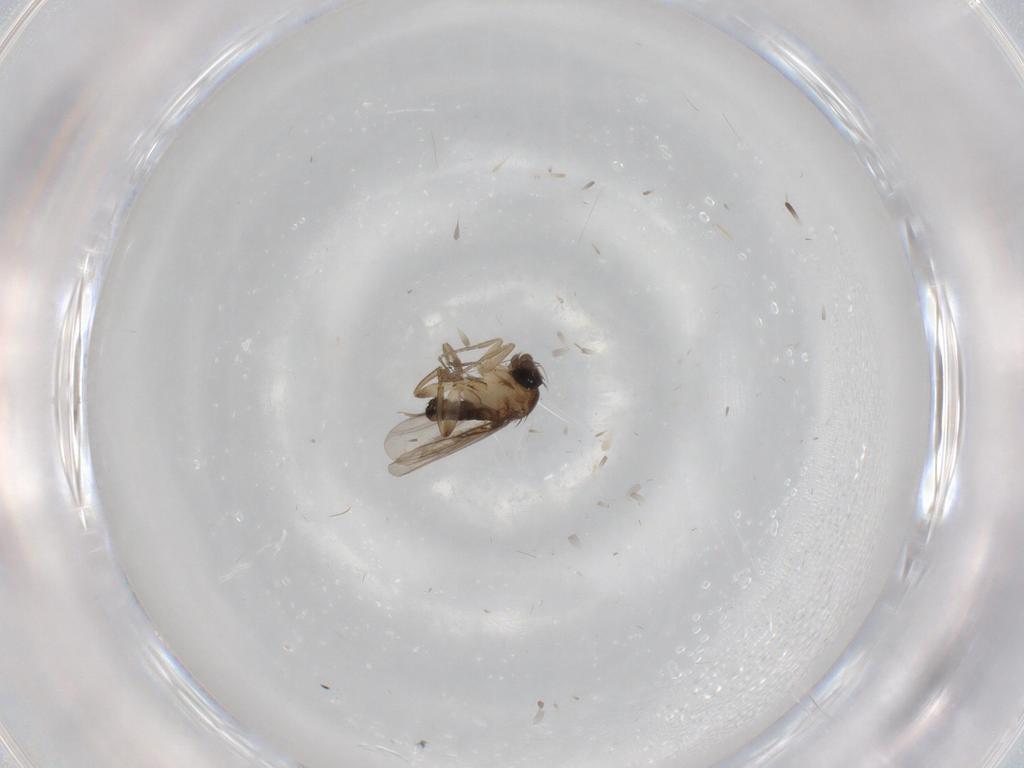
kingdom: Animalia
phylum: Arthropoda
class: Insecta
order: Diptera
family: Phoridae
